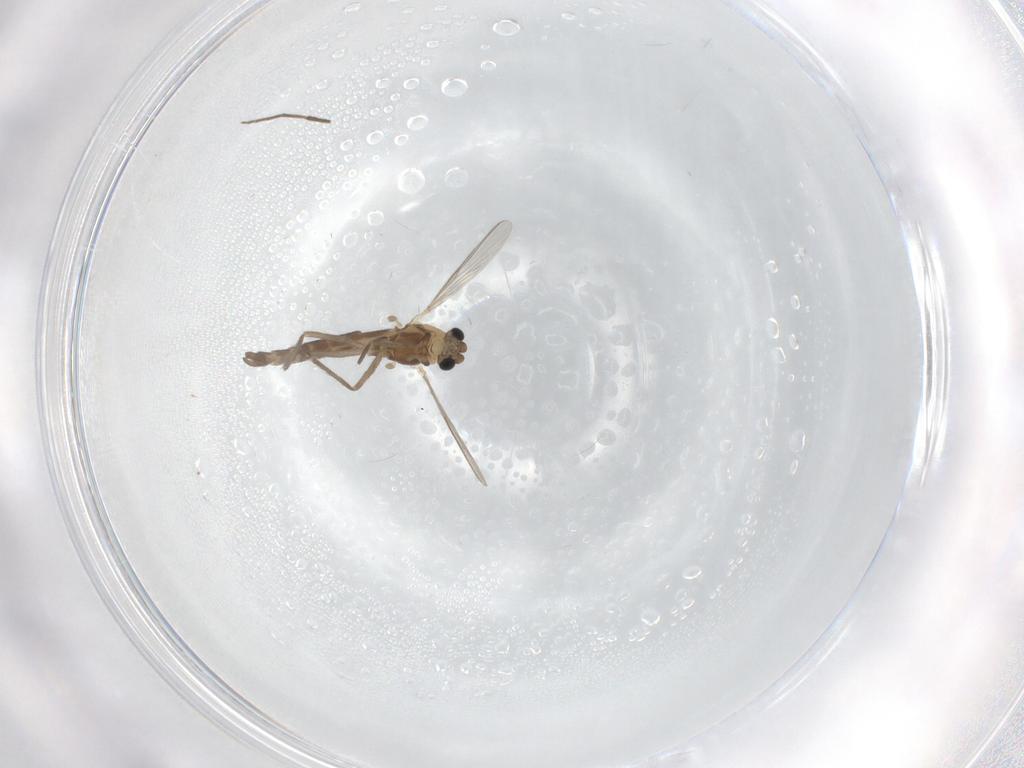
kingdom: Animalia
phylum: Arthropoda
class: Insecta
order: Diptera
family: Chironomidae
